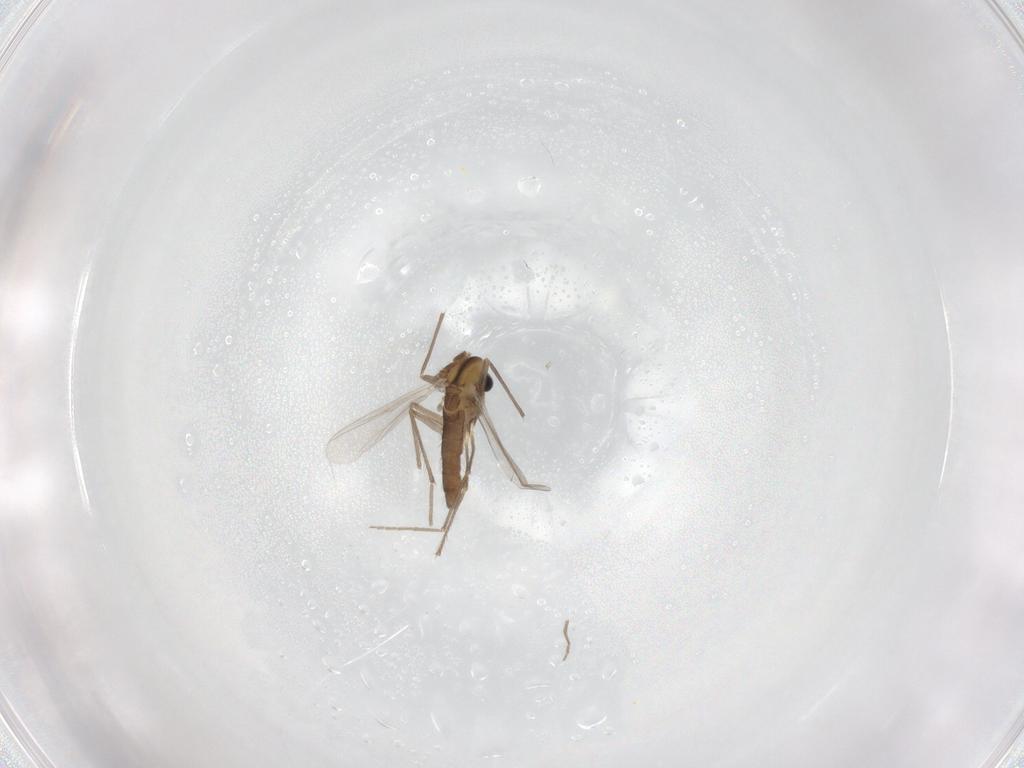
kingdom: Animalia
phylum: Arthropoda
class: Insecta
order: Diptera
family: Chironomidae
